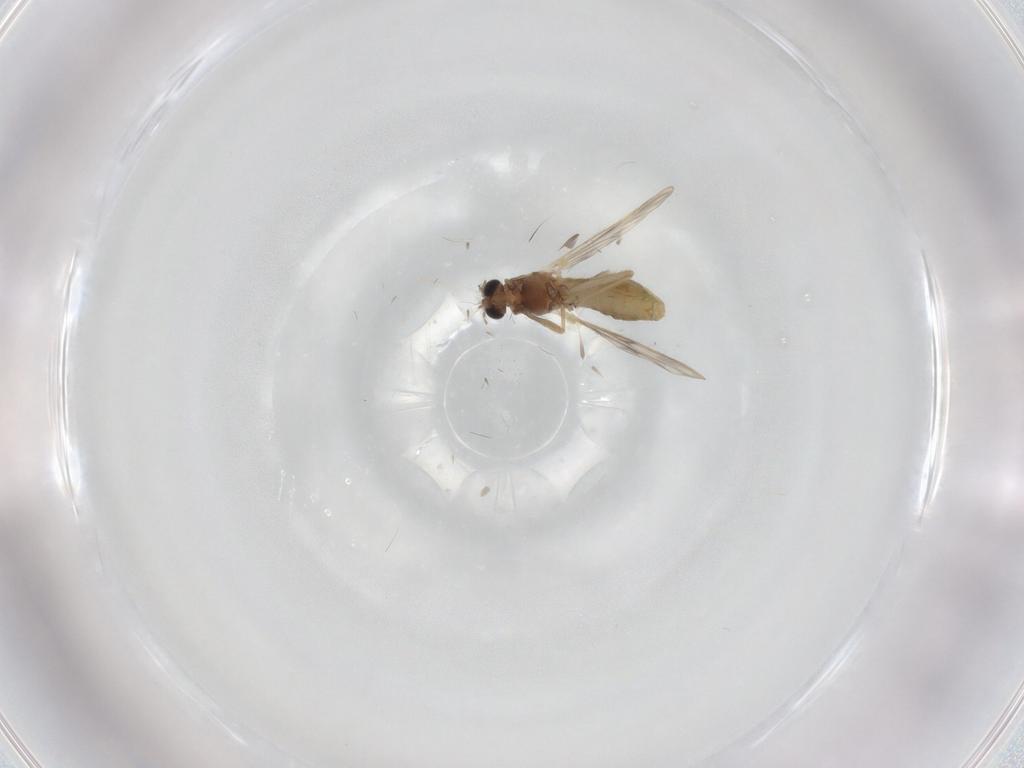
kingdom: Animalia
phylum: Arthropoda
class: Insecta
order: Diptera
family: Chironomidae
